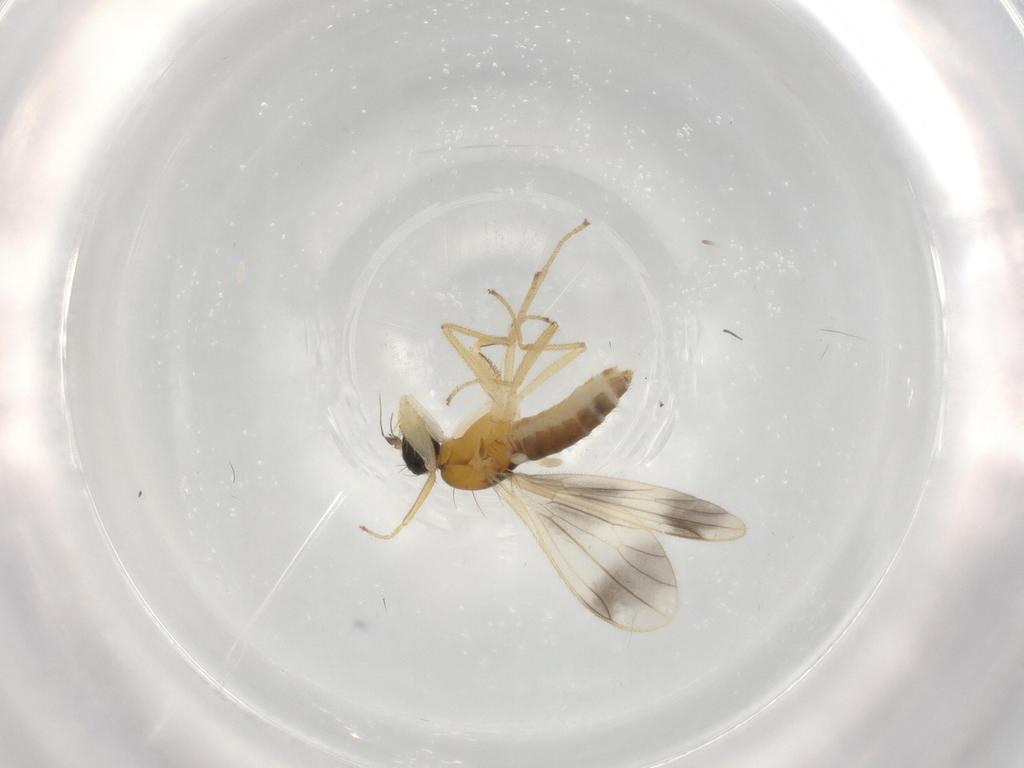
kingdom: Animalia
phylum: Arthropoda
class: Insecta
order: Diptera
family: Empididae
